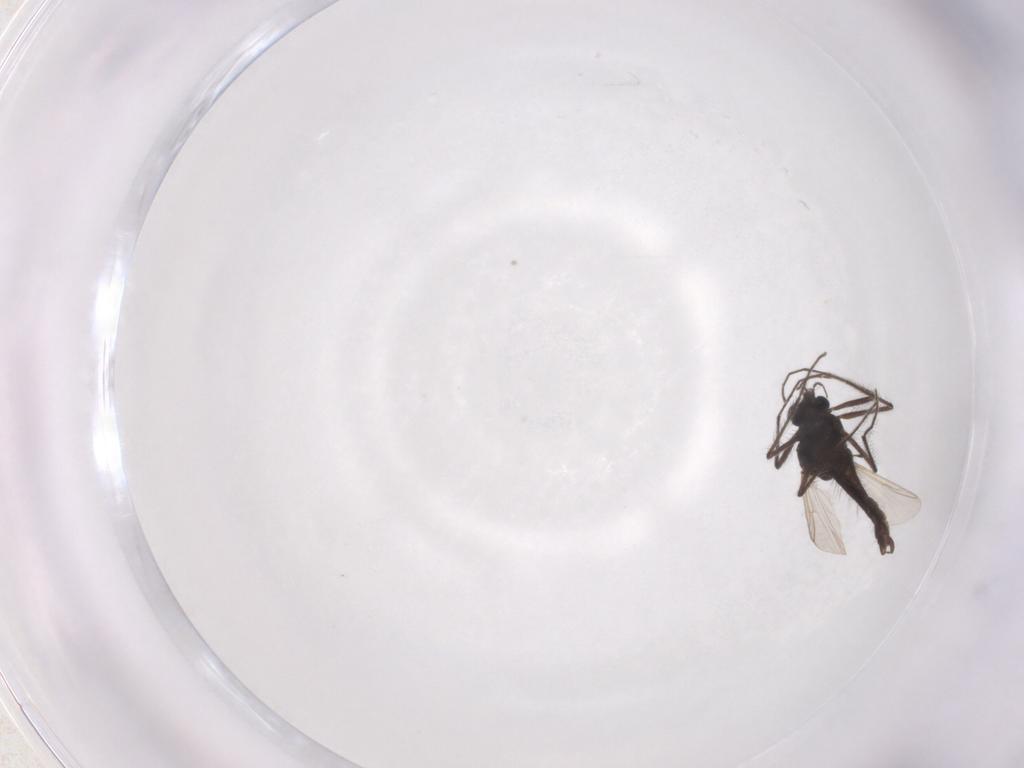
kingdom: Animalia
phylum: Arthropoda
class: Insecta
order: Diptera
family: Chironomidae
